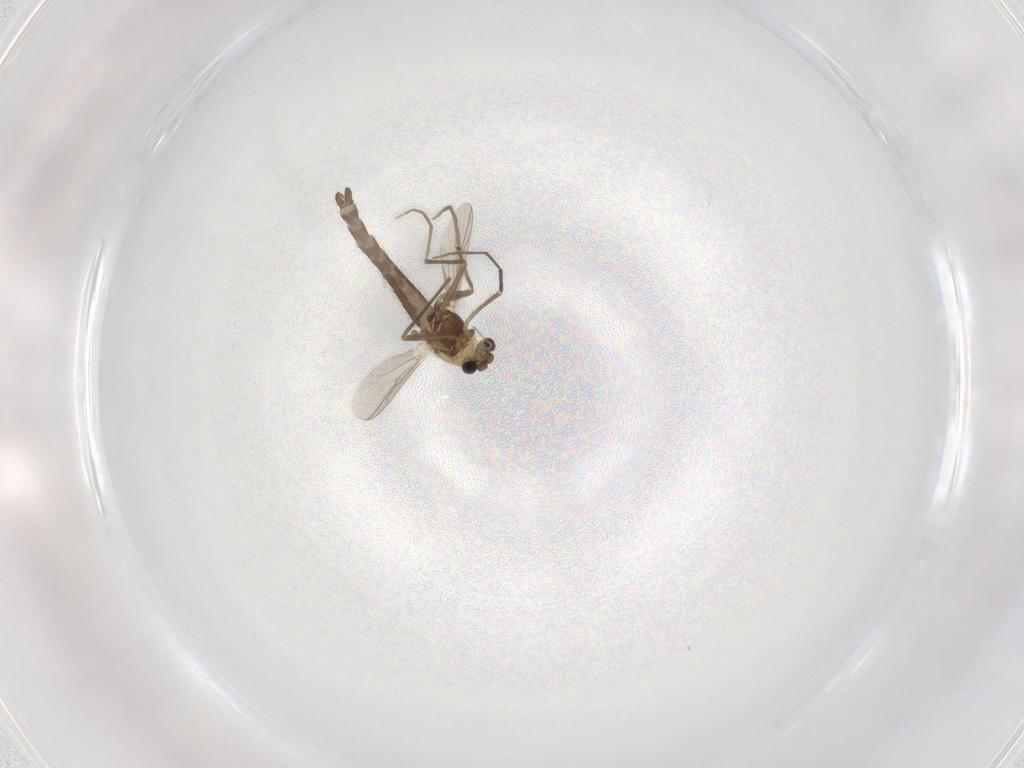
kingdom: Animalia
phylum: Arthropoda
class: Insecta
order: Diptera
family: Chironomidae
